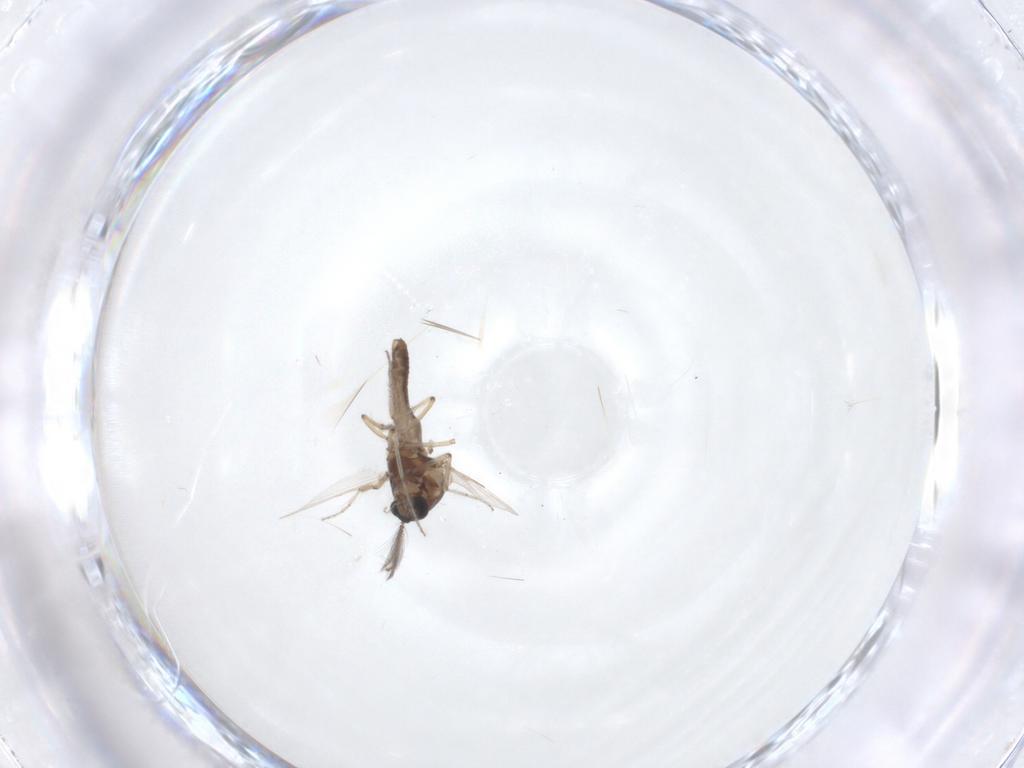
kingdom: Animalia
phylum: Arthropoda
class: Insecta
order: Diptera
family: Ceratopogonidae
